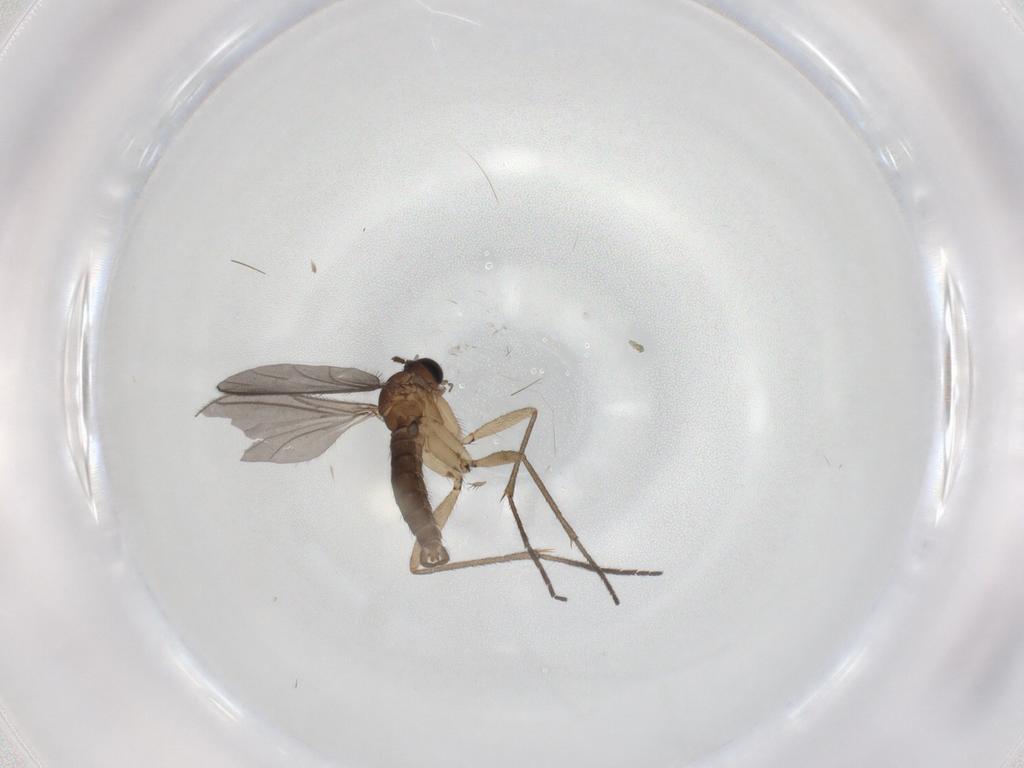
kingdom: Animalia
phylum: Arthropoda
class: Insecta
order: Diptera
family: Sciaridae
